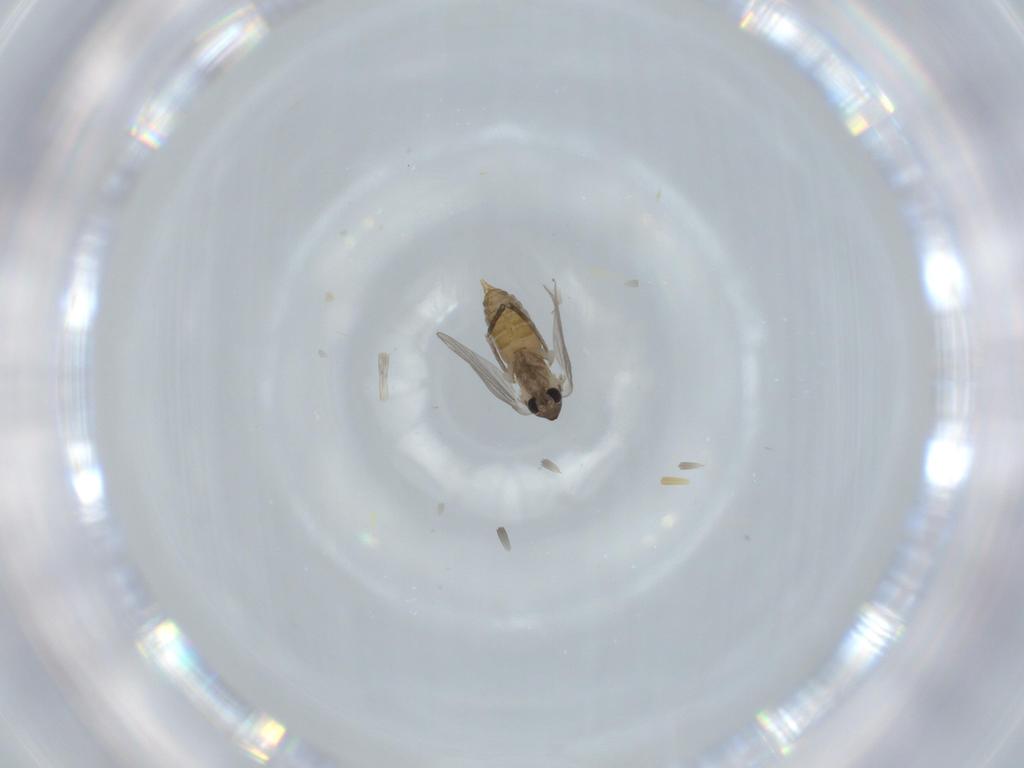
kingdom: Animalia
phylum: Arthropoda
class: Insecta
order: Diptera
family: Psychodidae
